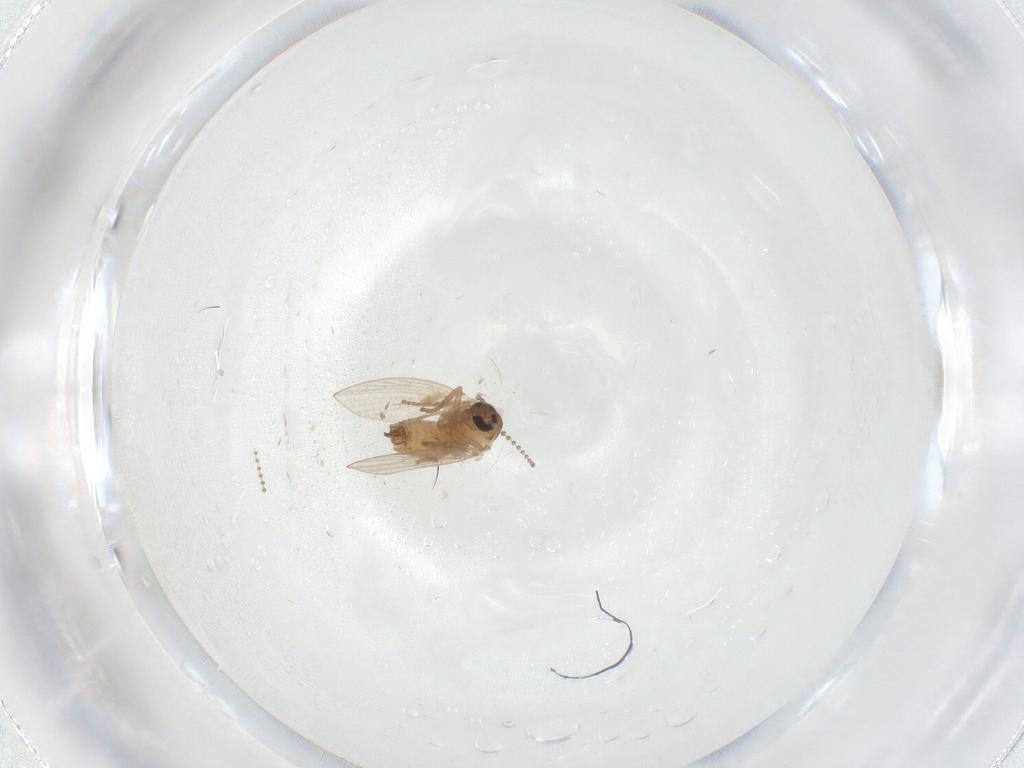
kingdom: Animalia
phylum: Arthropoda
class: Insecta
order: Diptera
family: Psychodidae
